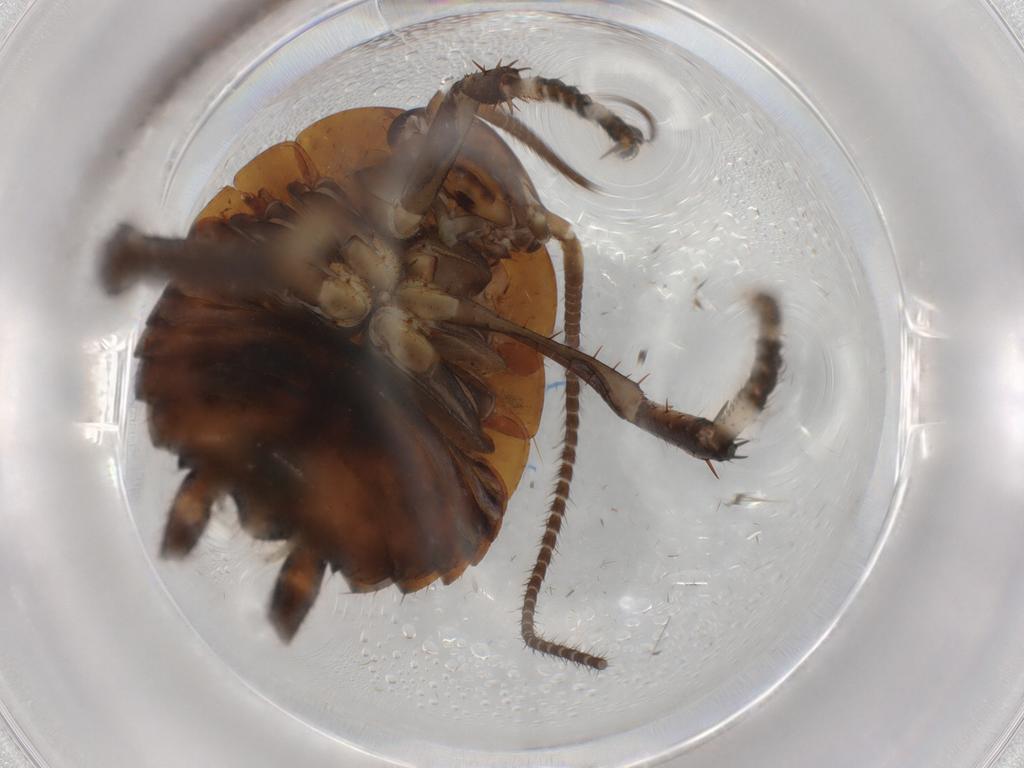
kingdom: Animalia
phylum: Arthropoda
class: Insecta
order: Blattodea
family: Blattidae
